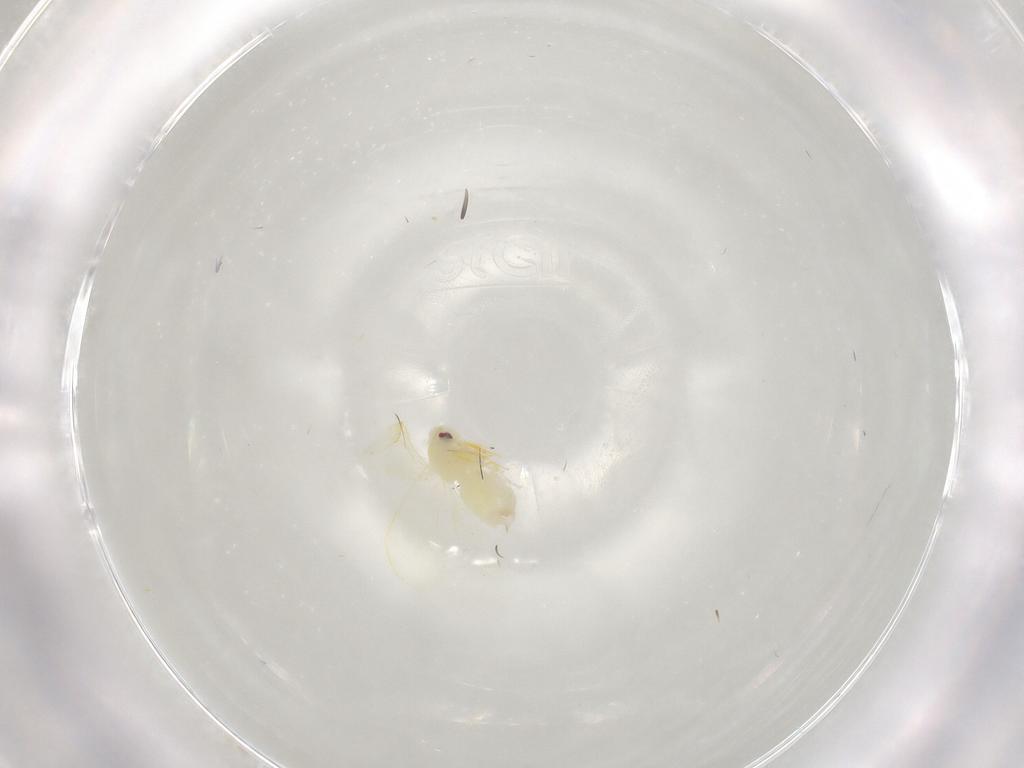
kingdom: Animalia
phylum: Arthropoda
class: Insecta
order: Hemiptera
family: Aleyrodidae
